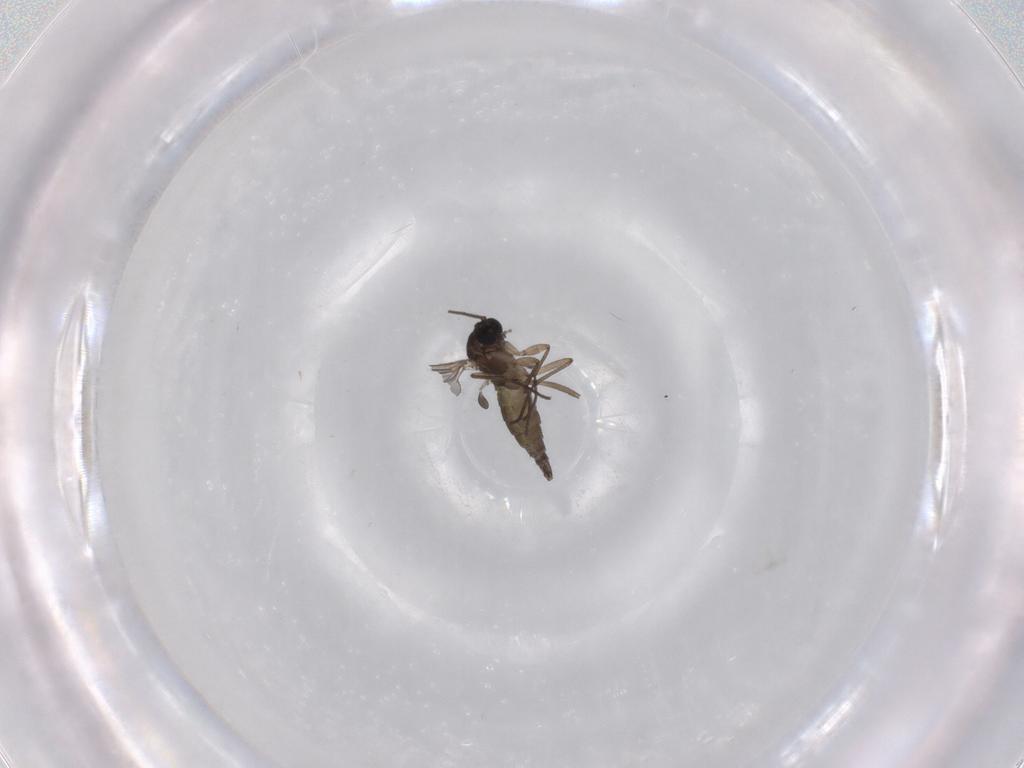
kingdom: Animalia
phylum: Arthropoda
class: Insecta
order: Diptera
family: Sciaridae
